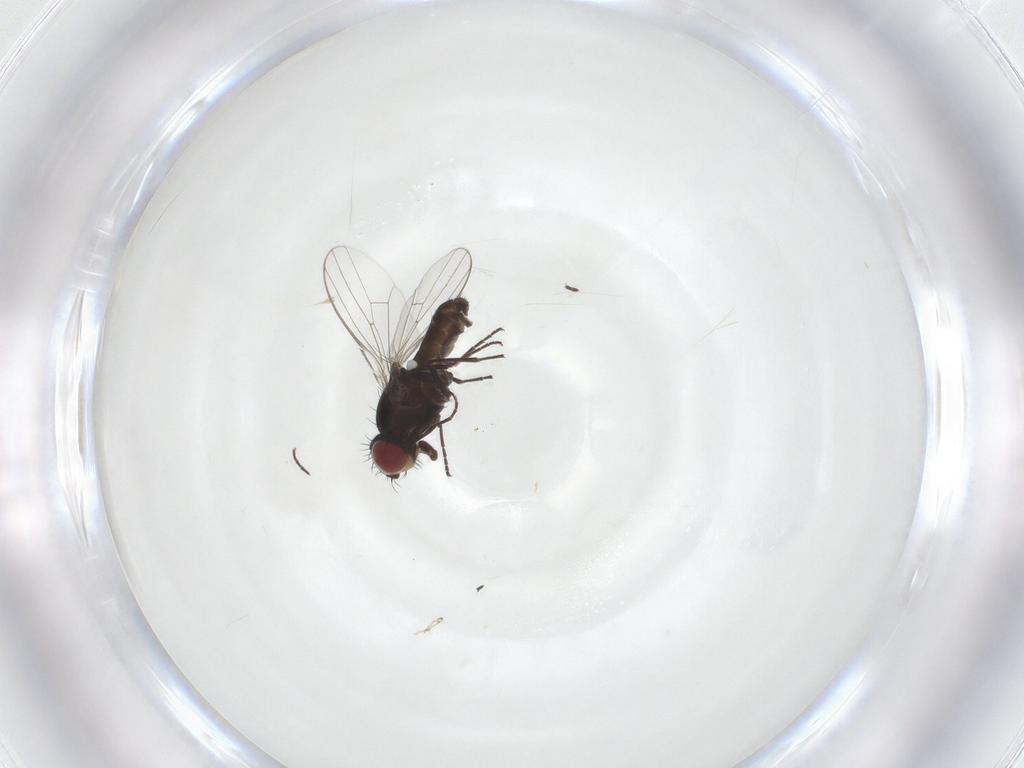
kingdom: Animalia
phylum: Arthropoda
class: Insecta
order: Diptera
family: Carnidae
